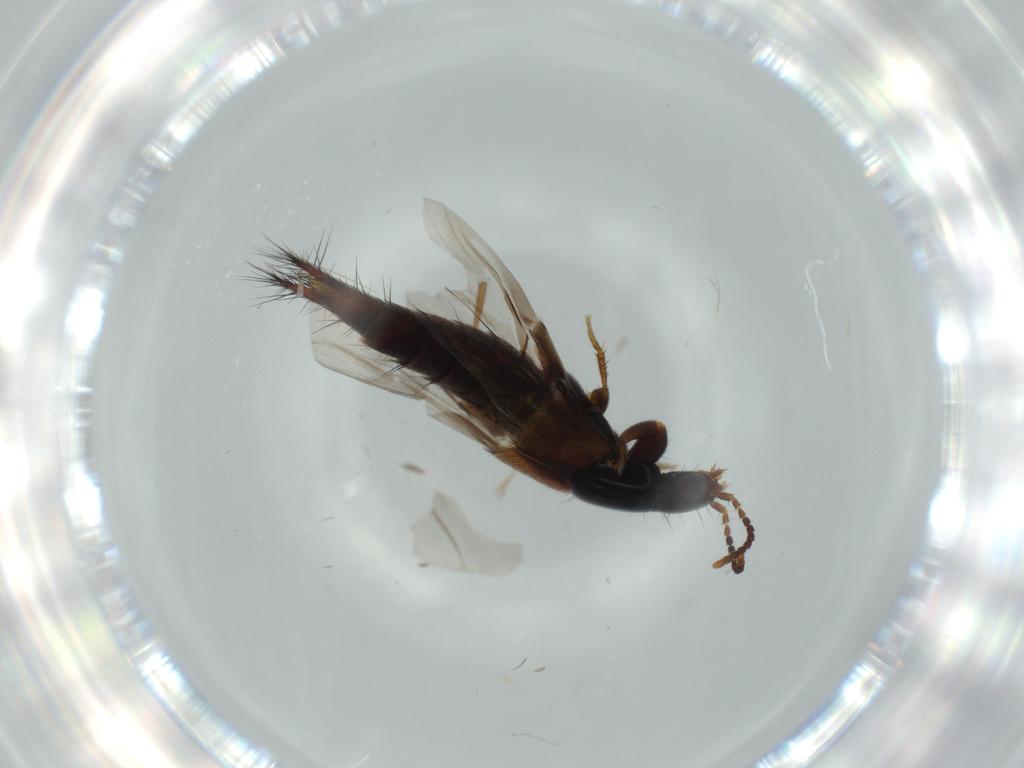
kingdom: Animalia
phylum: Arthropoda
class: Insecta
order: Coleoptera
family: Staphylinidae
